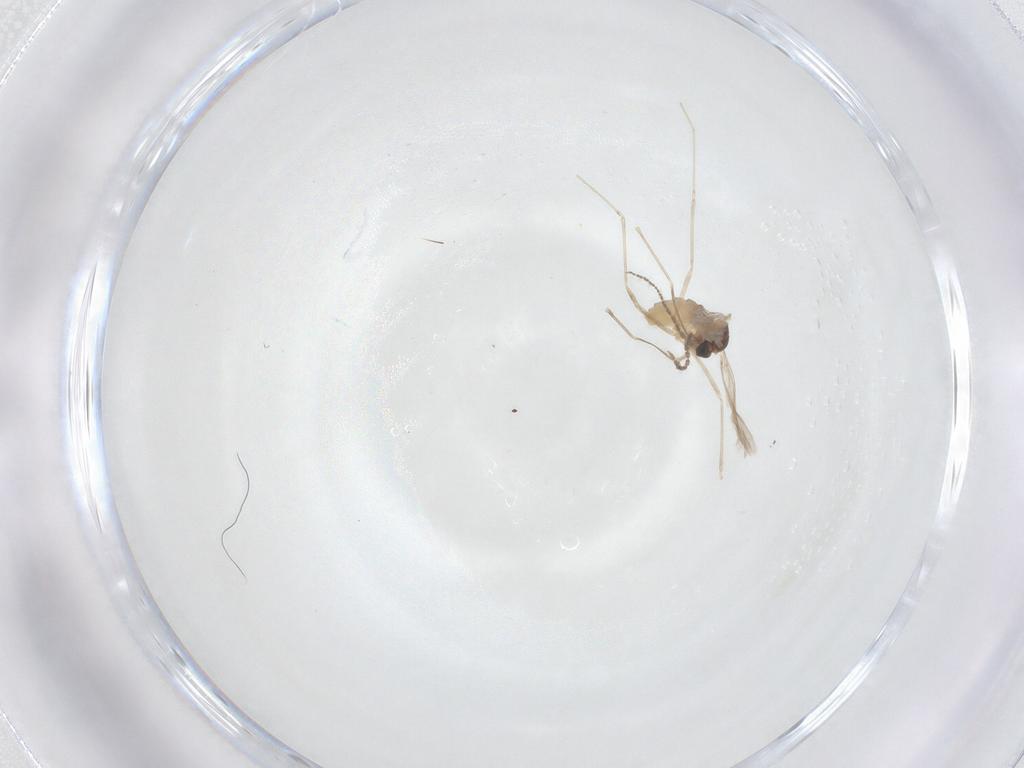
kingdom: Animalia
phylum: Arthropoda
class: Insecta
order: Diptera
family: Cecidomyiidae
